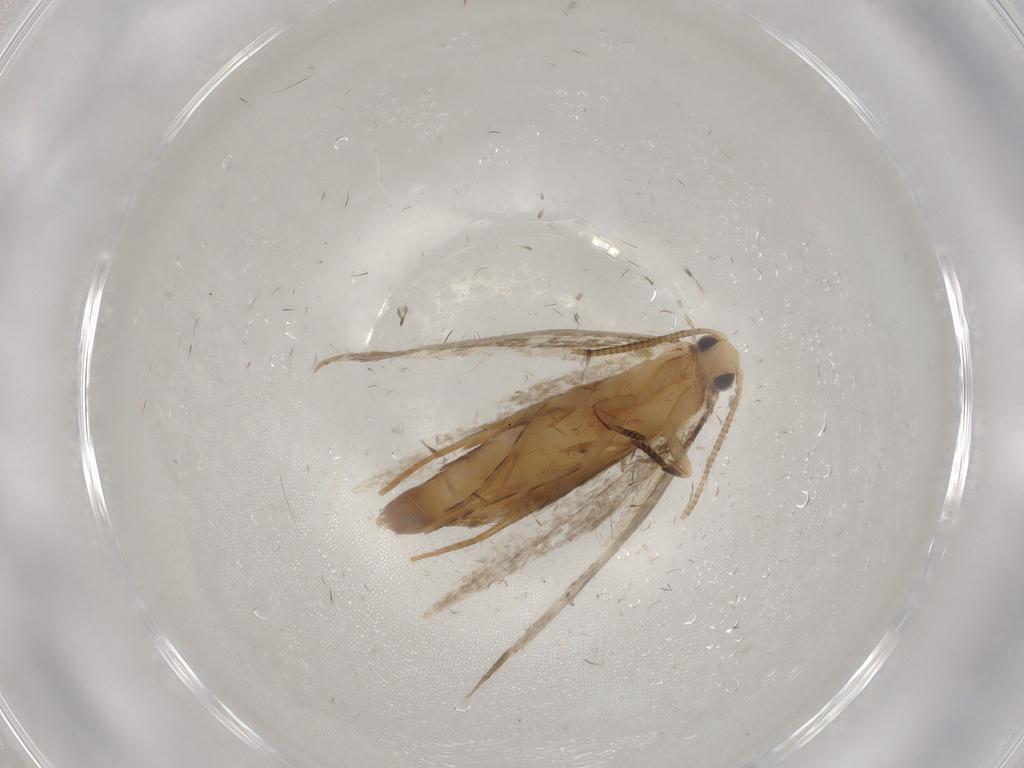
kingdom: Animalia
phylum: Arthropoda
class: Insecta
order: Lepidoptera
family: Tineidae
